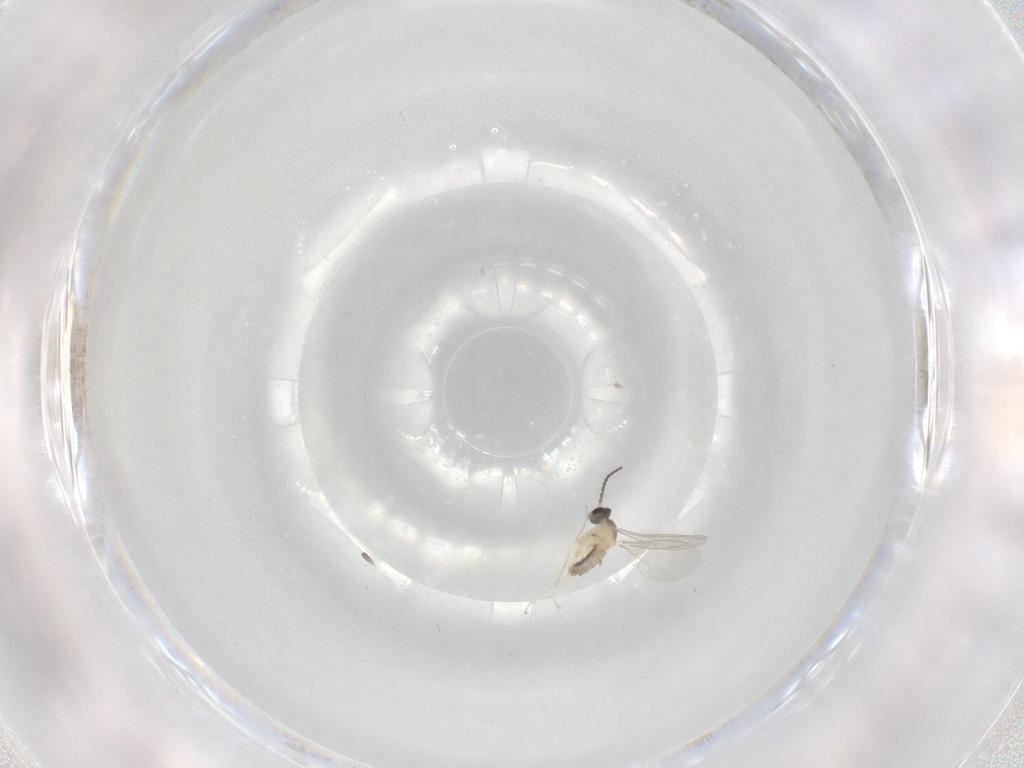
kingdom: Animalia
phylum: Arthropoda
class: Insecta
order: Diptera
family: Cecidomyiidae
